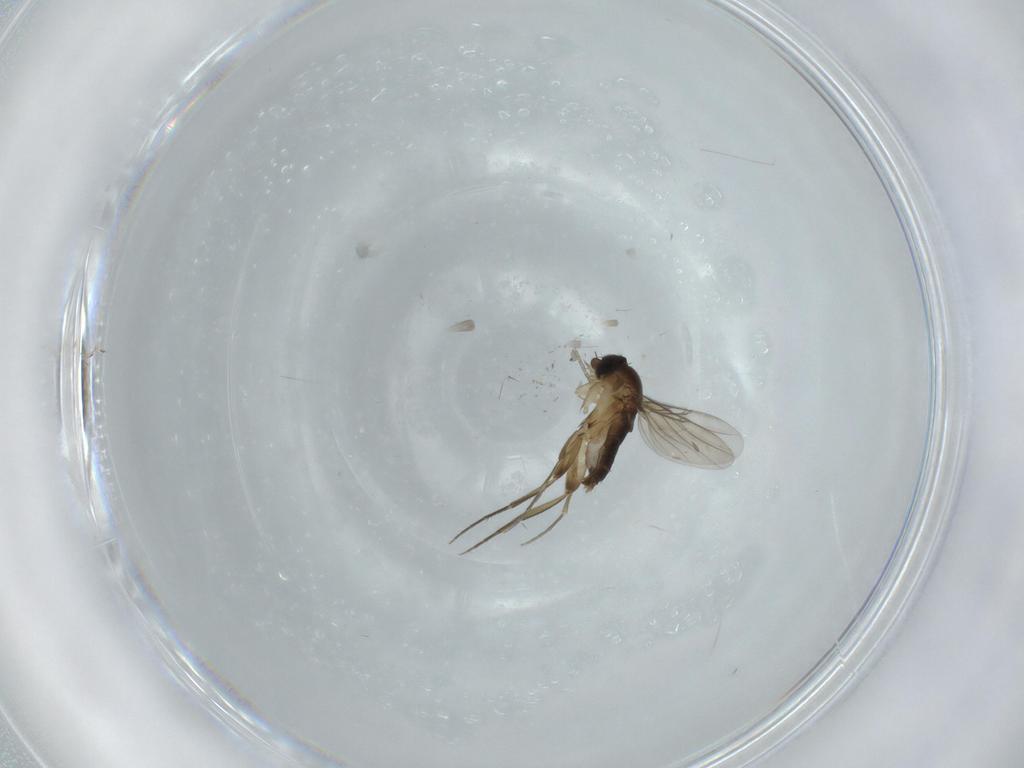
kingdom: Animalia
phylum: Arthropoda
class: Insecta
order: Diptera
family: Phoridae
